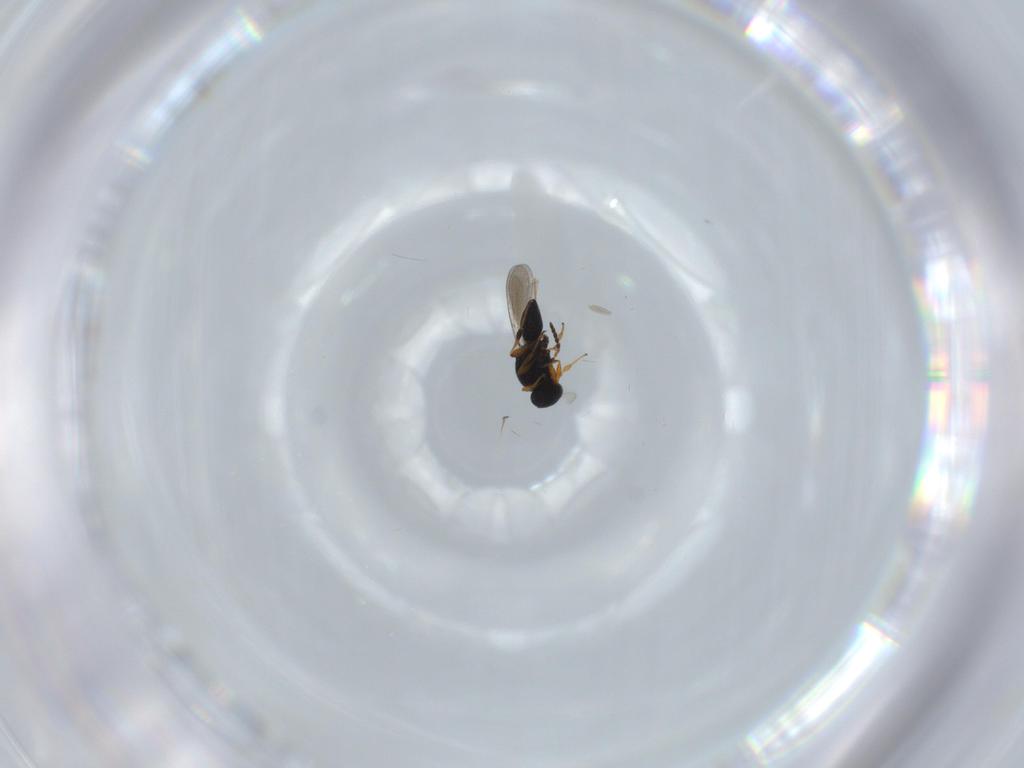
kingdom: Animalia
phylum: Arthropoda
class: Insecta
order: Hymenoptera
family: Platygastridae
